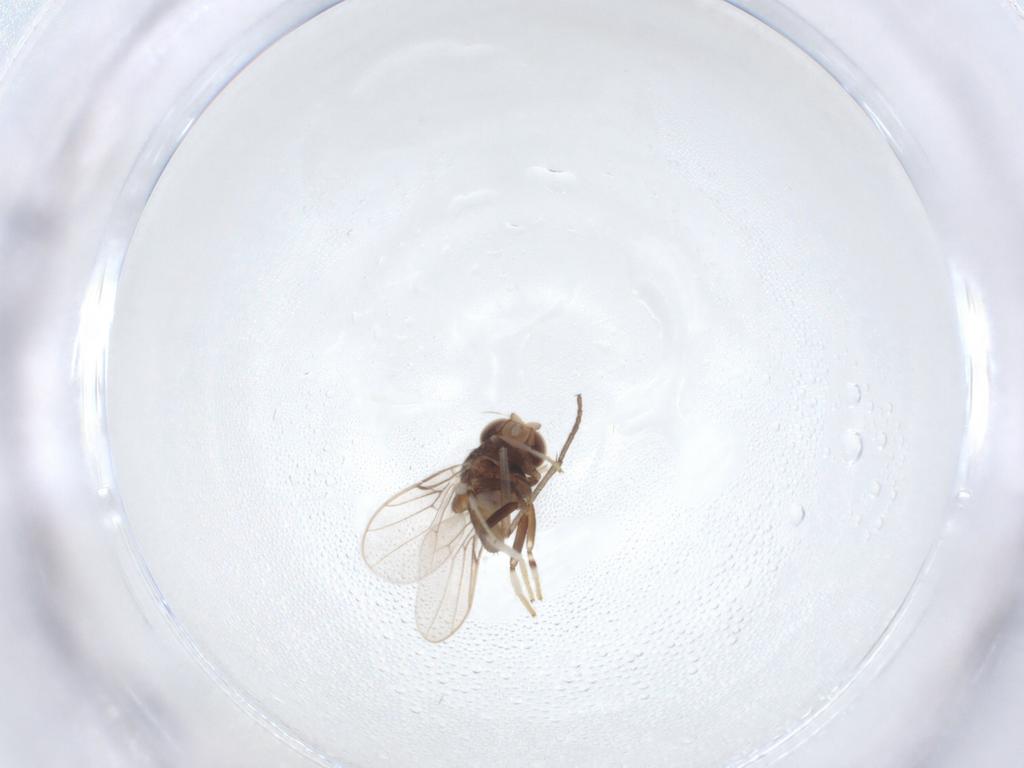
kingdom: Animalia
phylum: Arthropoda
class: Insecta
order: Diptera
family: Sciaridae
